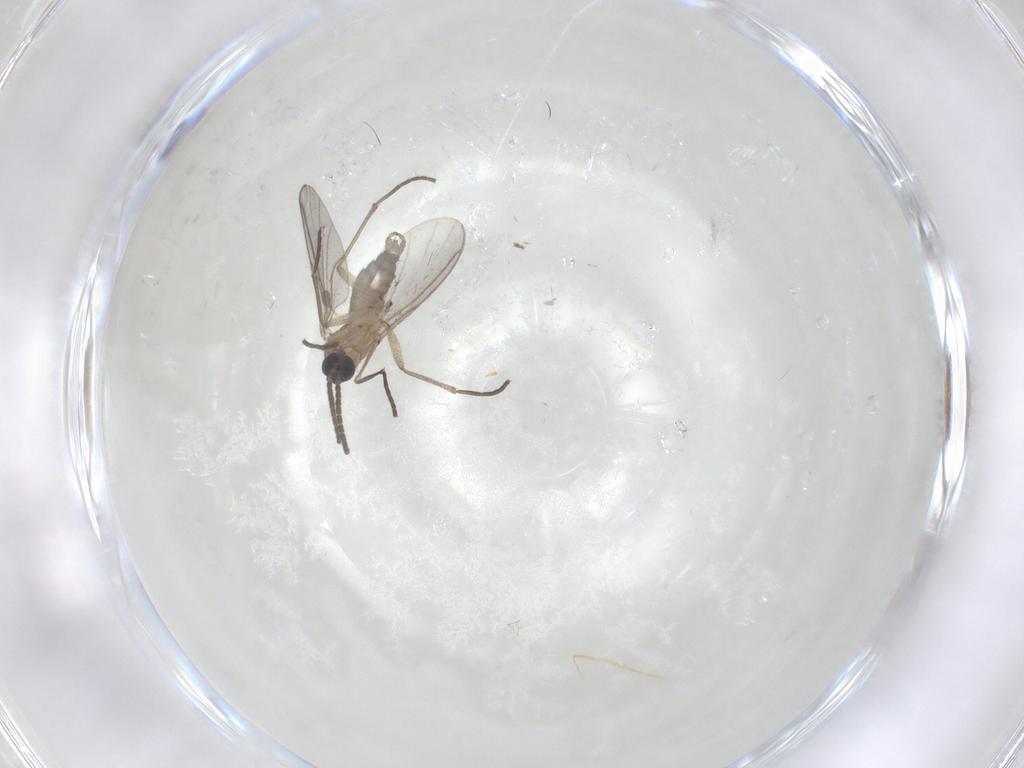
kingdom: Animalia
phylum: Arthropoda
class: Insecta
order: Diptera
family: Sciaridae
